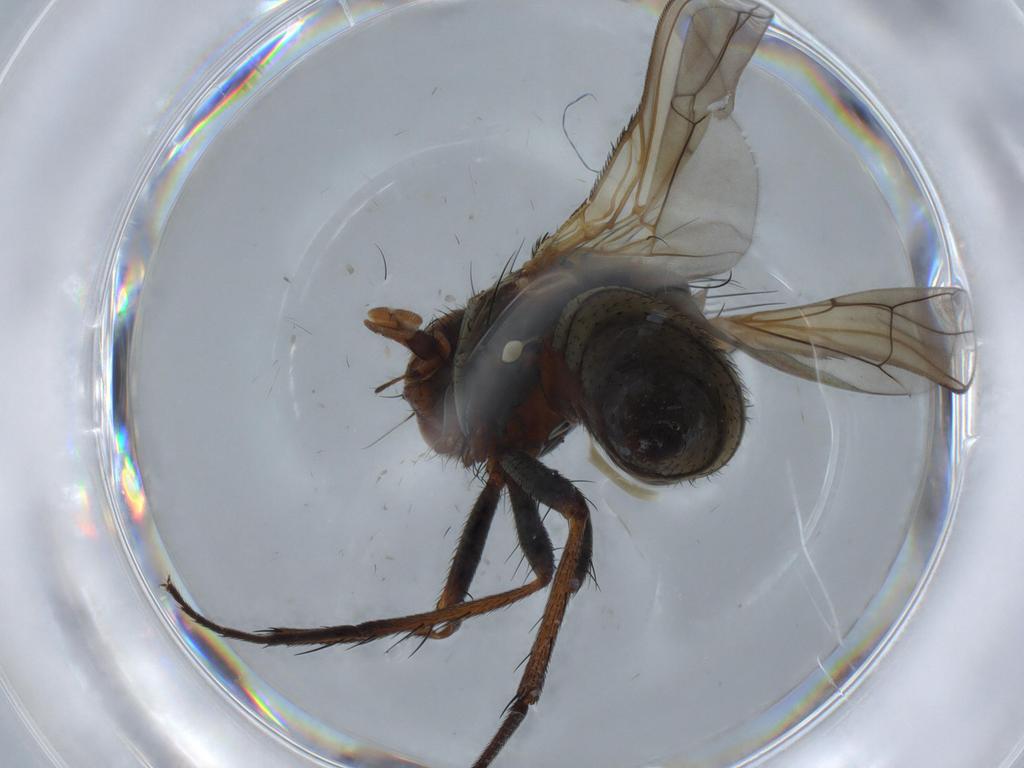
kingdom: Animalia
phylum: Arthropoda
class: Insecta
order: Diptera
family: Anthomyiidae
